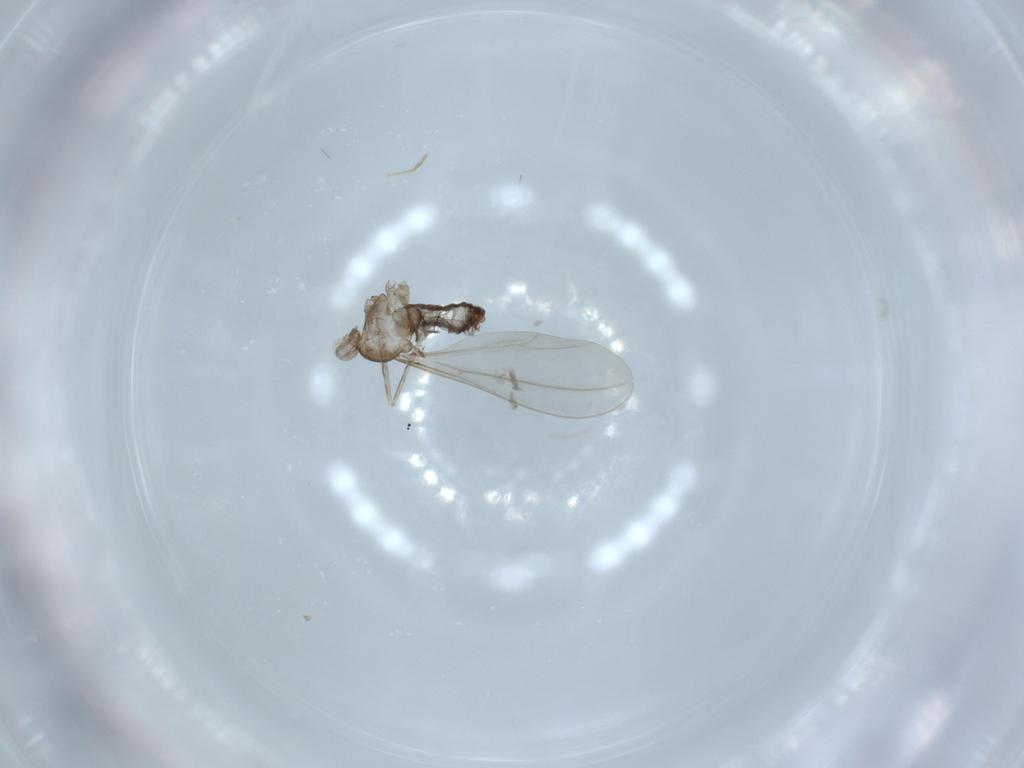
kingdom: Animalia
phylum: Arthropoda
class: Insecta
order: Diptera
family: Cecidomyiidae
